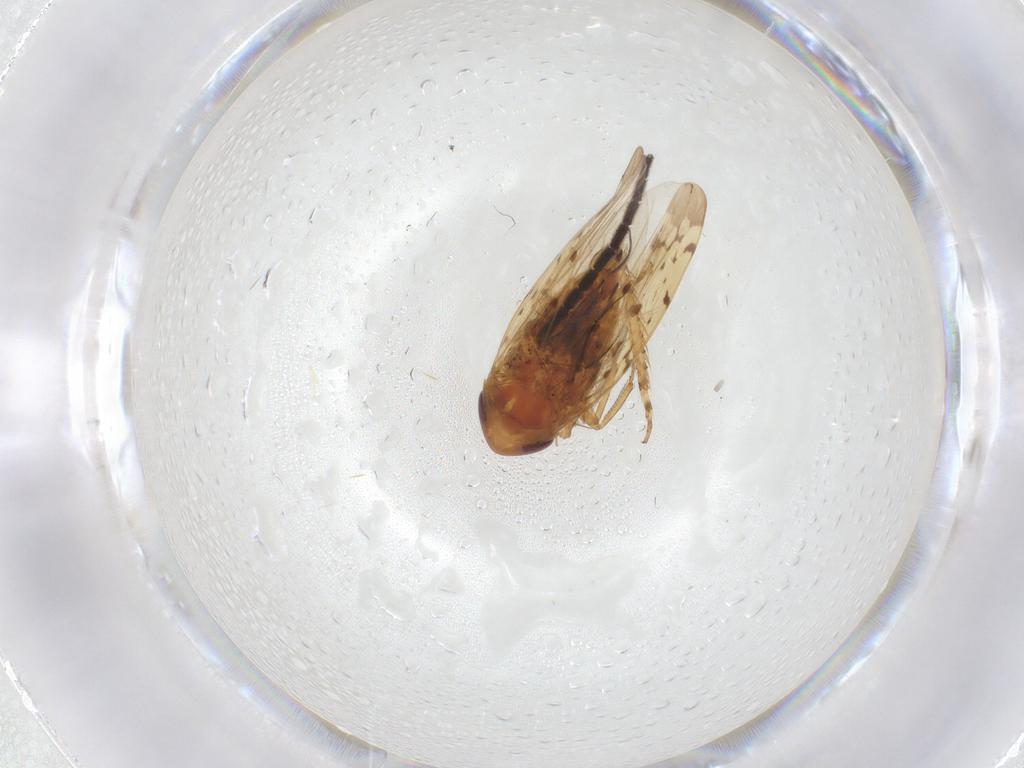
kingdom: Animalia
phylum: Arthropoda
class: Insecta
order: Hemiptera
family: Cicadellidae
